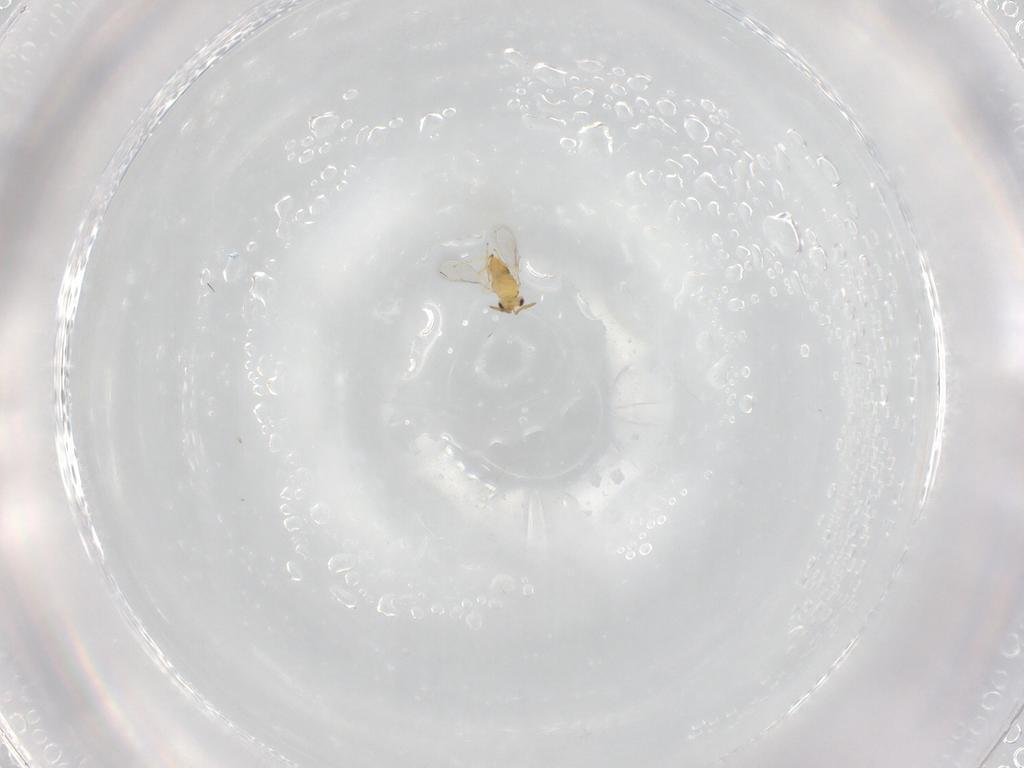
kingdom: Animalia
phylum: Arthropoda
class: Insecta
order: Hymenoptera
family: Aphelinidae
